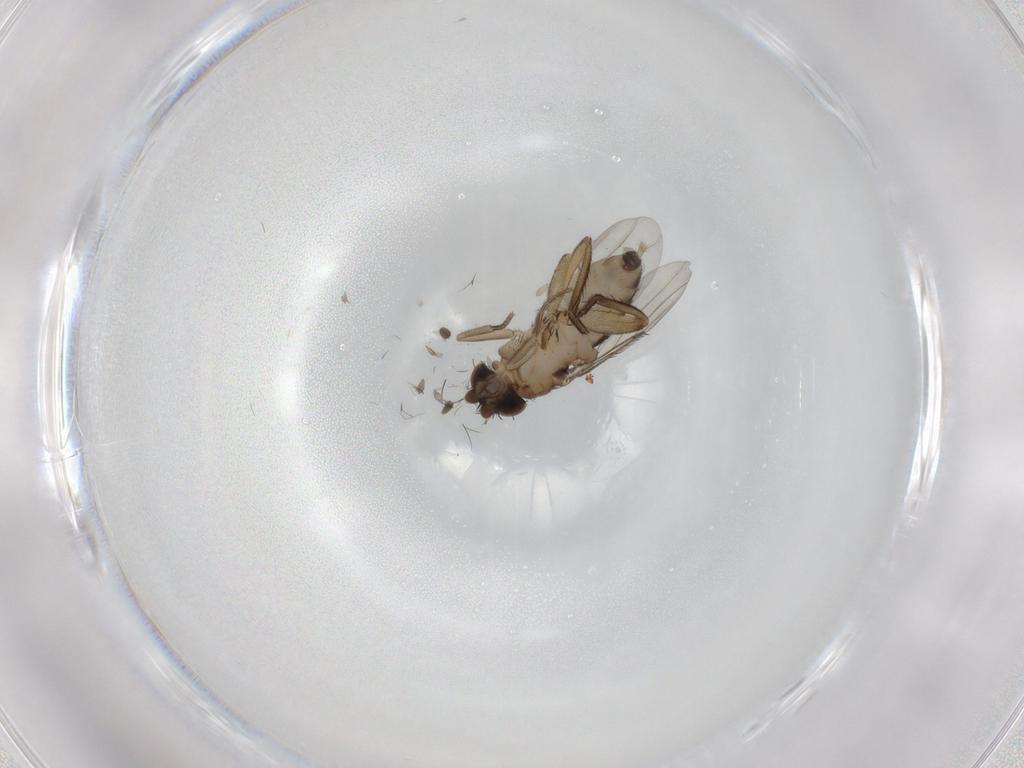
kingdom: Animalia
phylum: Arthropoda
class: Insecta
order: Diptera
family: Phoridae
